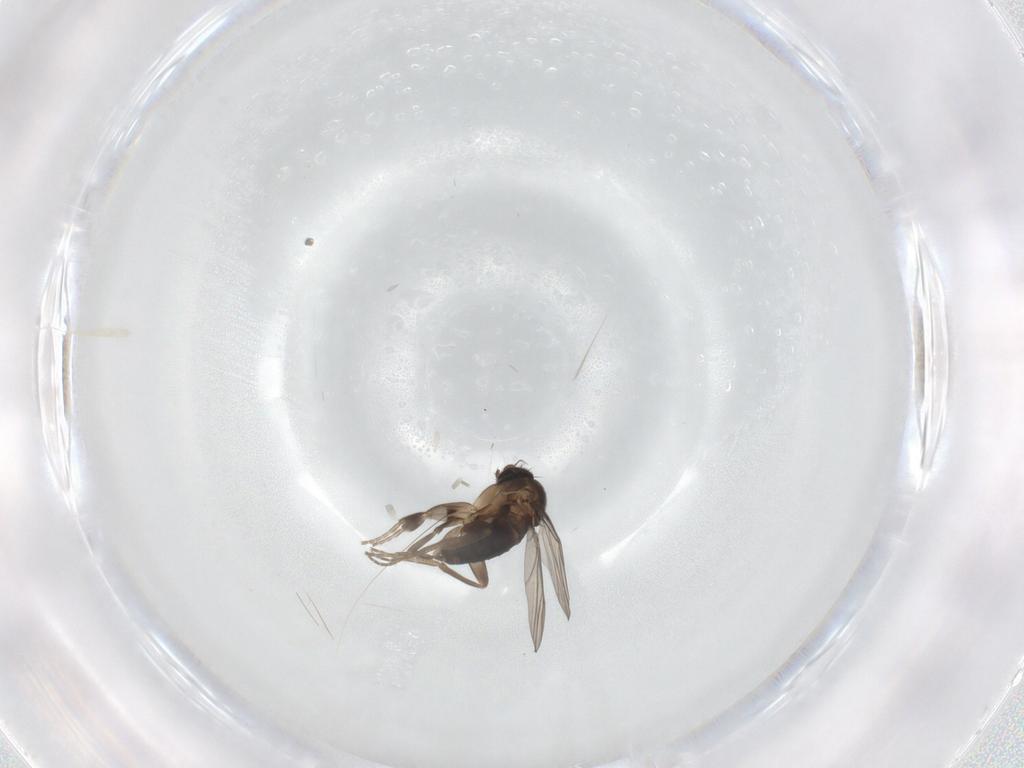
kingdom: Animalia
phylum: Arthropoda
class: Insecta
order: Diptera
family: Phoridae
